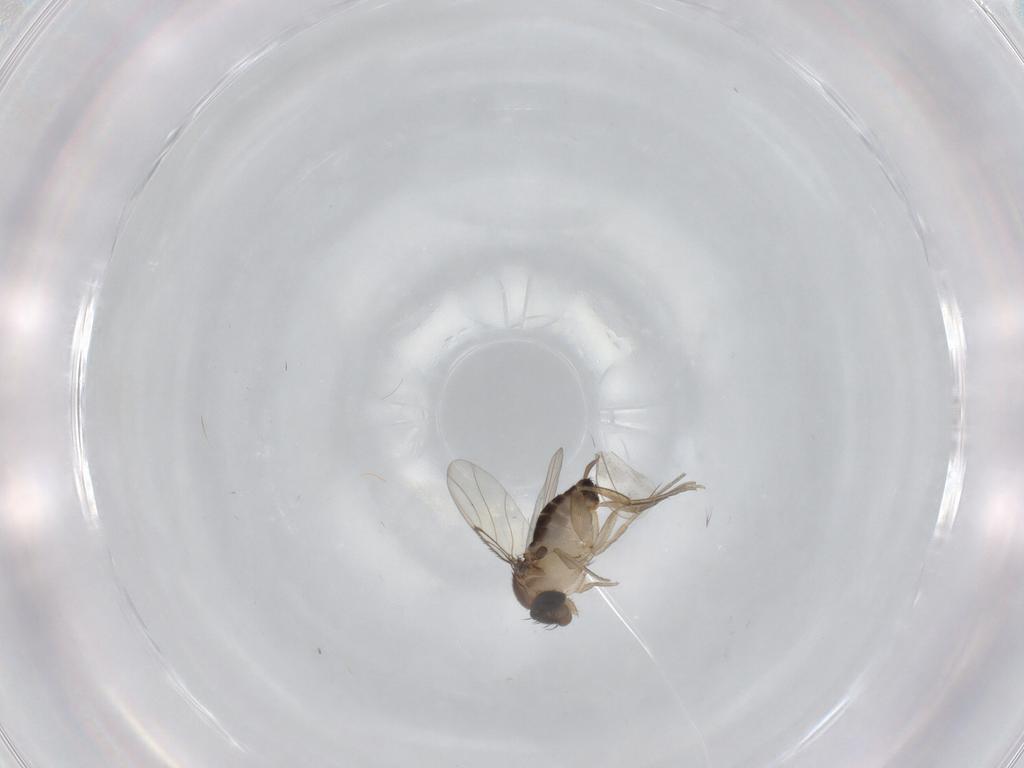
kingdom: Animalia
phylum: Arthropoda
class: Insecta
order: Diptera
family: Cecidomyiidae
